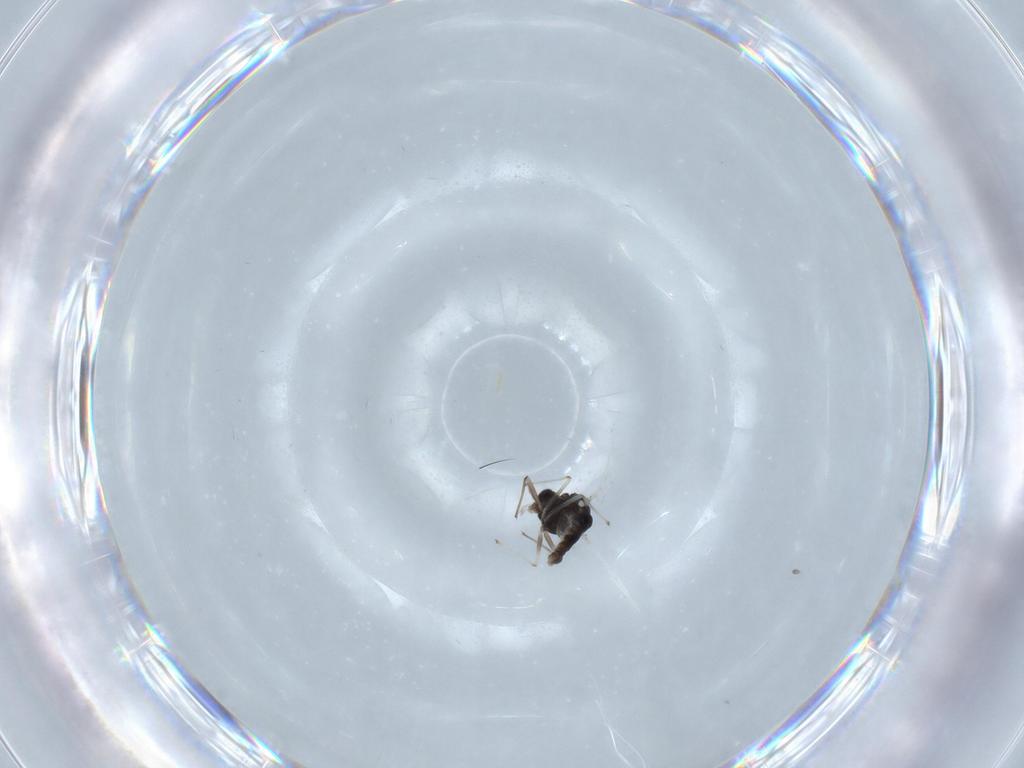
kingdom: Animalia
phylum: Arthropoda
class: Insecta
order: Diptera
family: Chironomidae
